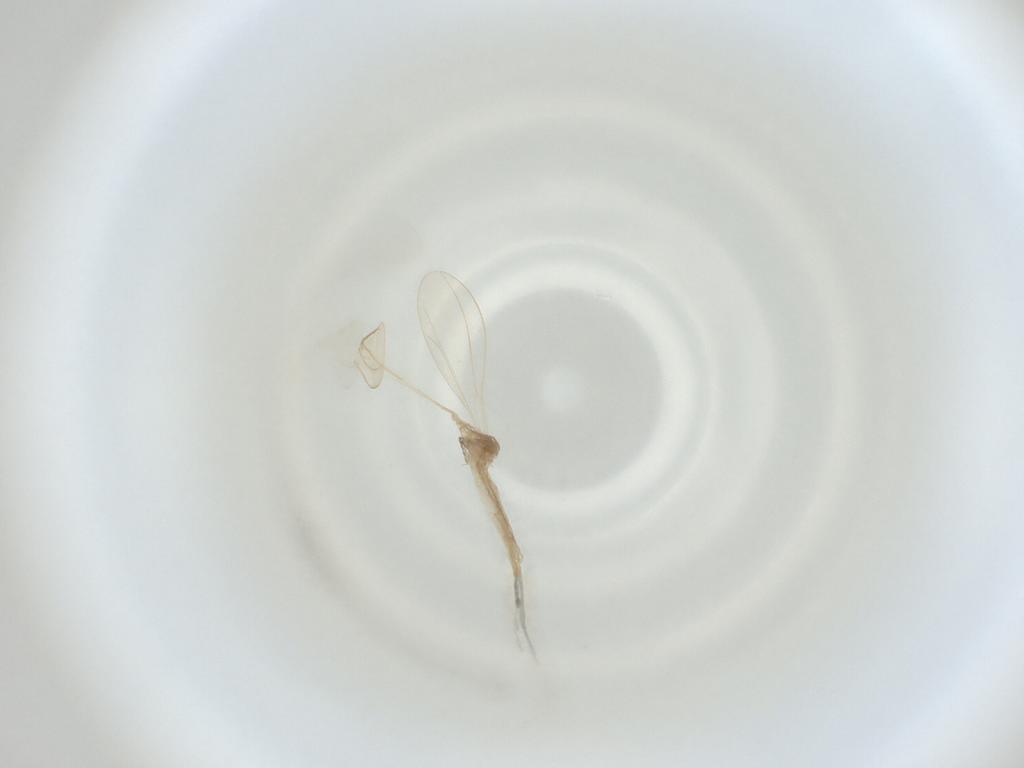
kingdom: Animalia
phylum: Arthropoda
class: Insecta
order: Diptera
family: Cecidomyiidae
